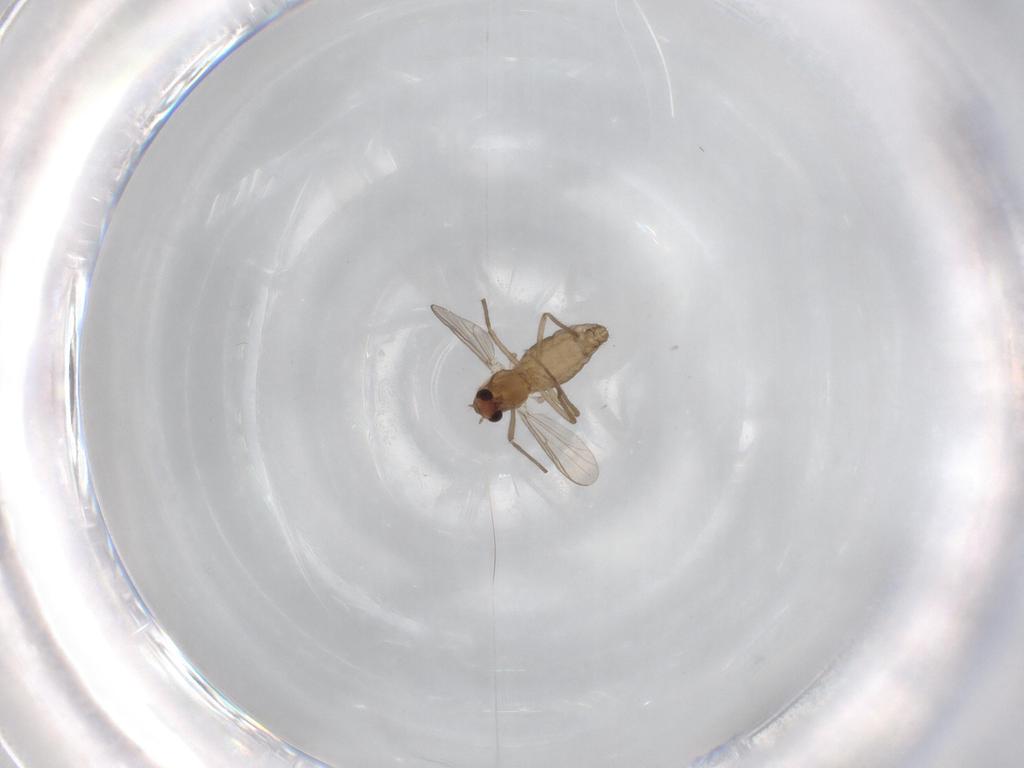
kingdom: Animalia
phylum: Arthropoda
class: Insecta
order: Diptera
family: Chironomidae
